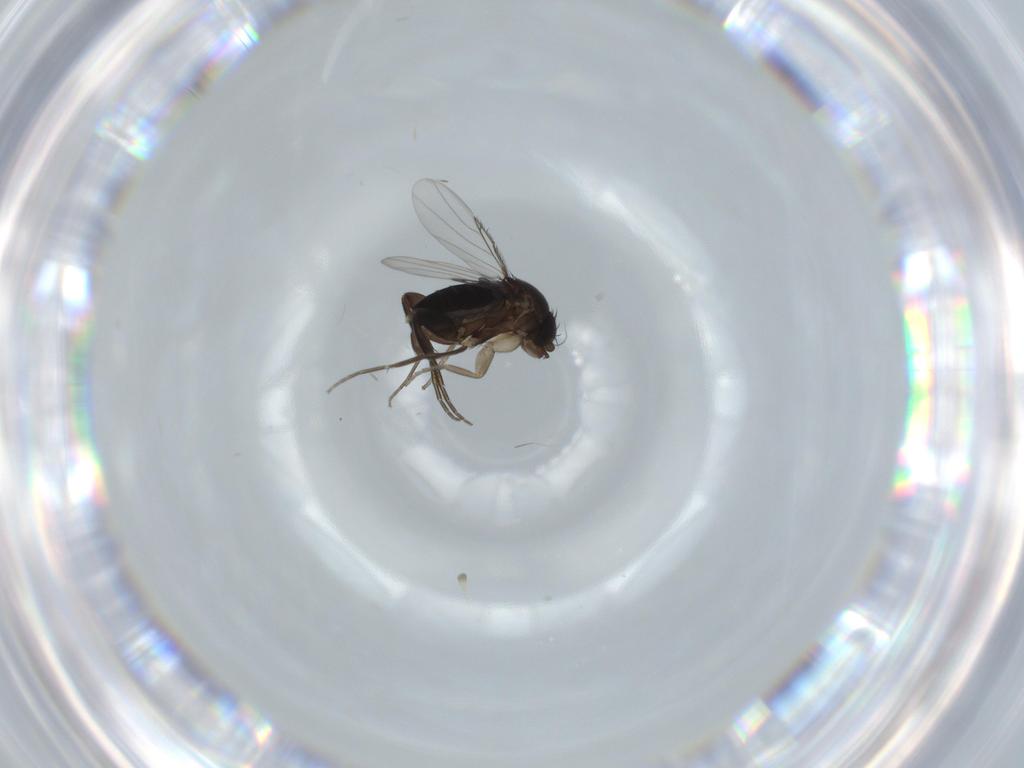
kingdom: Animalia
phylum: Arthropoda
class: Insecta
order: Diptera
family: Phoridae
